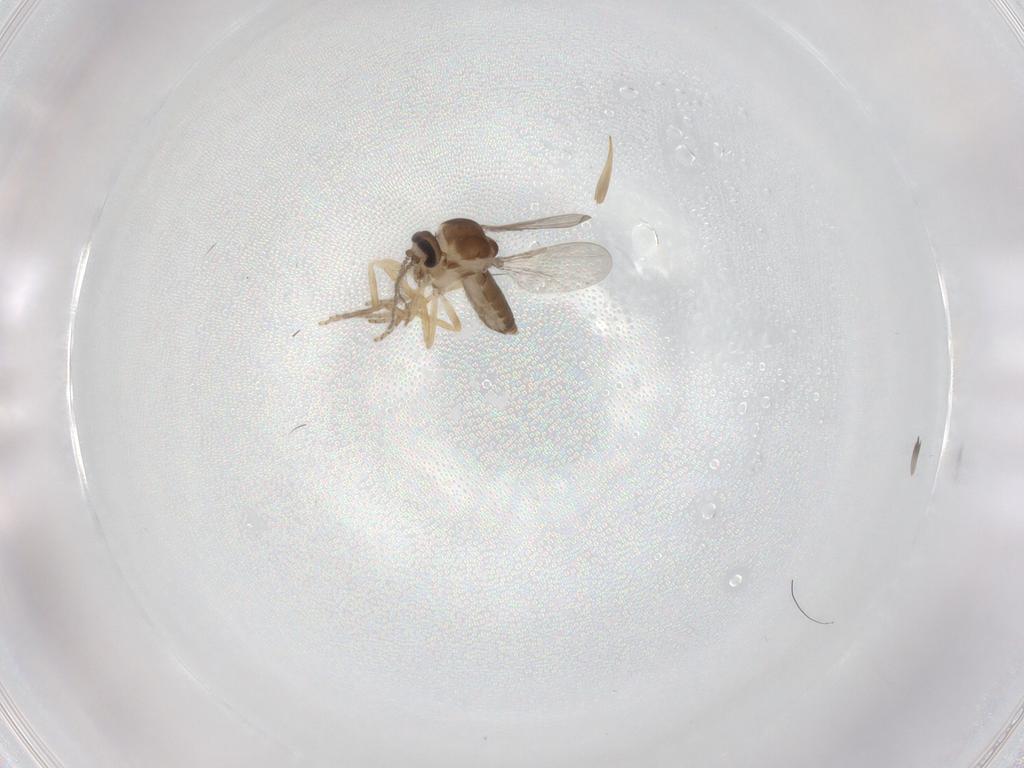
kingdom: Animalia
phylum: Arthropoda
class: Insecta
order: Diptera
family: Ceratopogonidae
